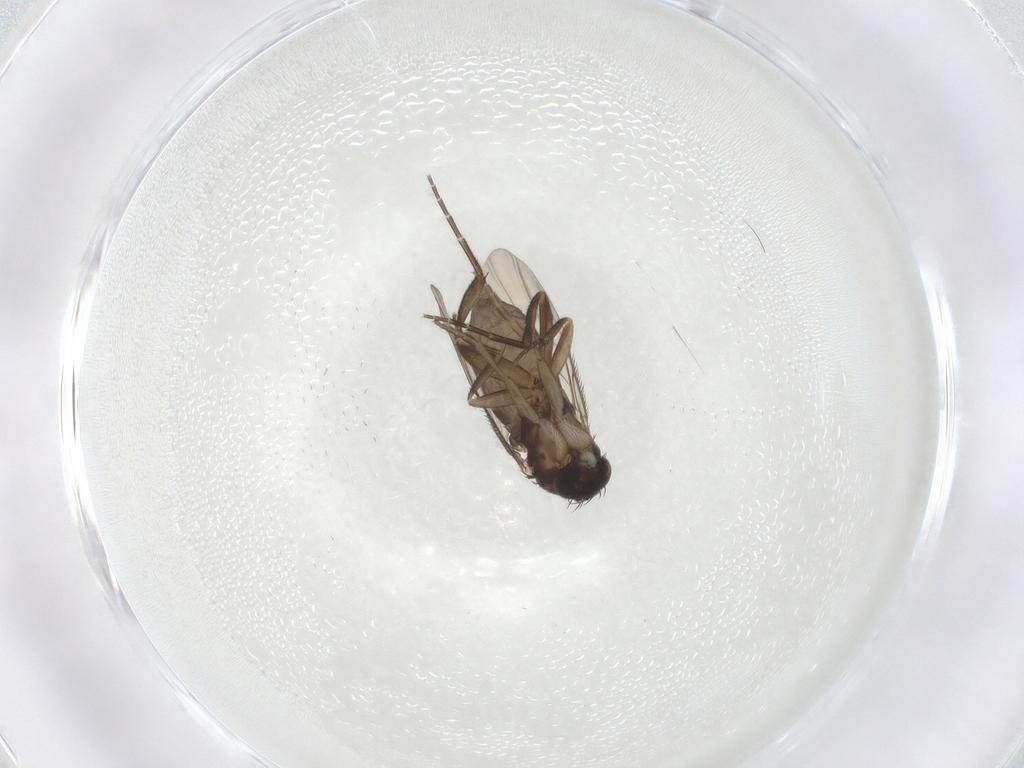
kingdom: Animalia
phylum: Arthropoda
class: Insecta
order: Diptera
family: Phoridae
